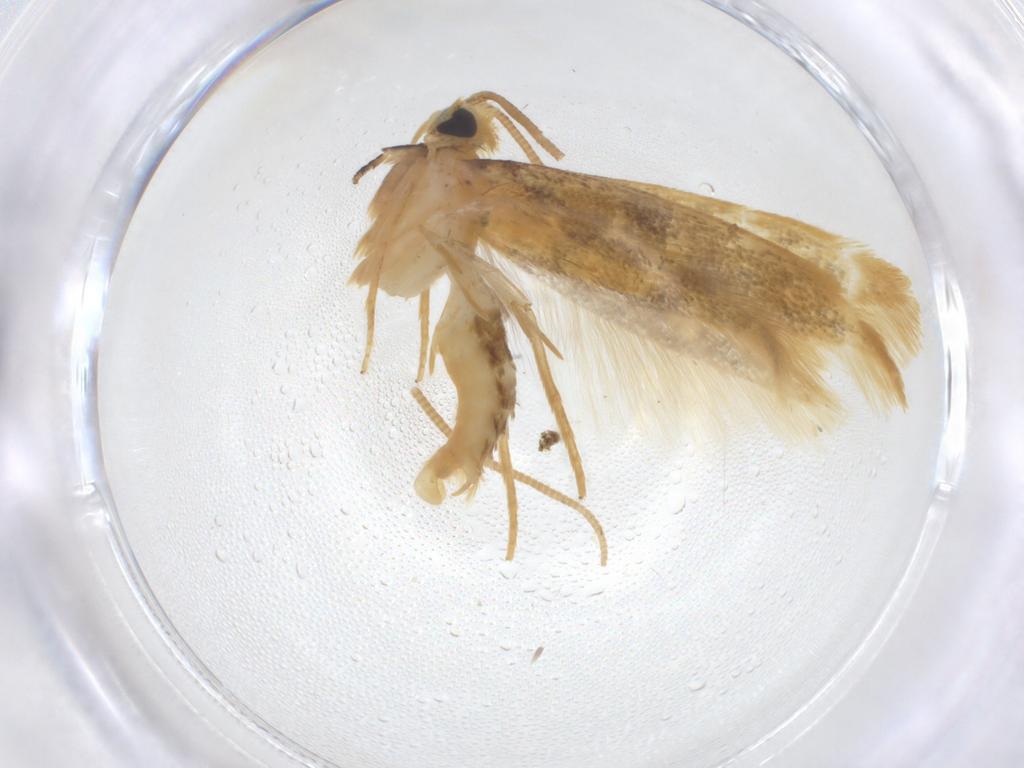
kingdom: Animalia
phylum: Arthropoda
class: Insecta
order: Lepidoptera
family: Tineidae
